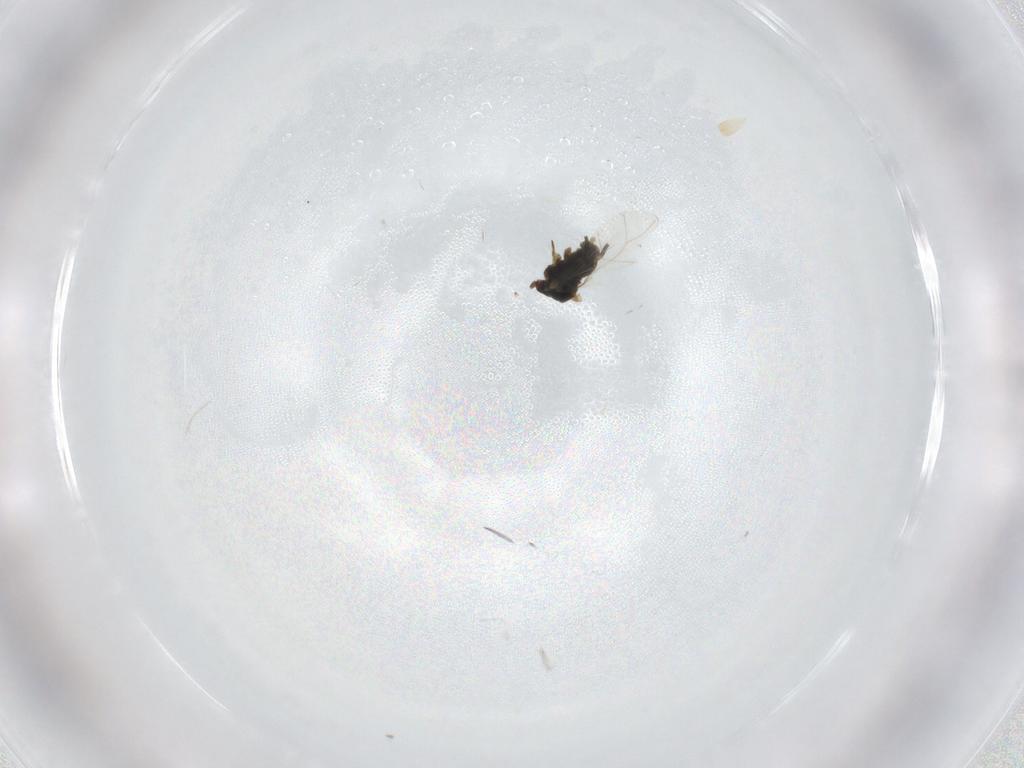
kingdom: Animalia
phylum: Arthropoda
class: Insecta
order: Hemiptera
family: Aphididae
